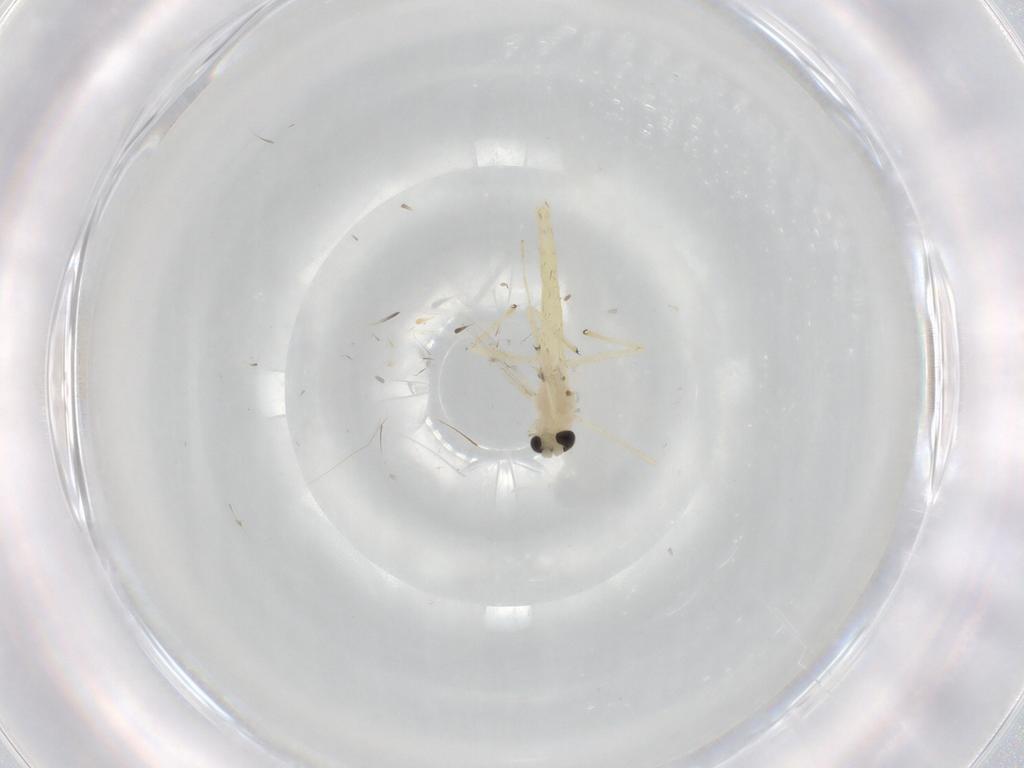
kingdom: Animalia
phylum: Arthropoda
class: Insecta
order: Diptera
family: Chironomidae
